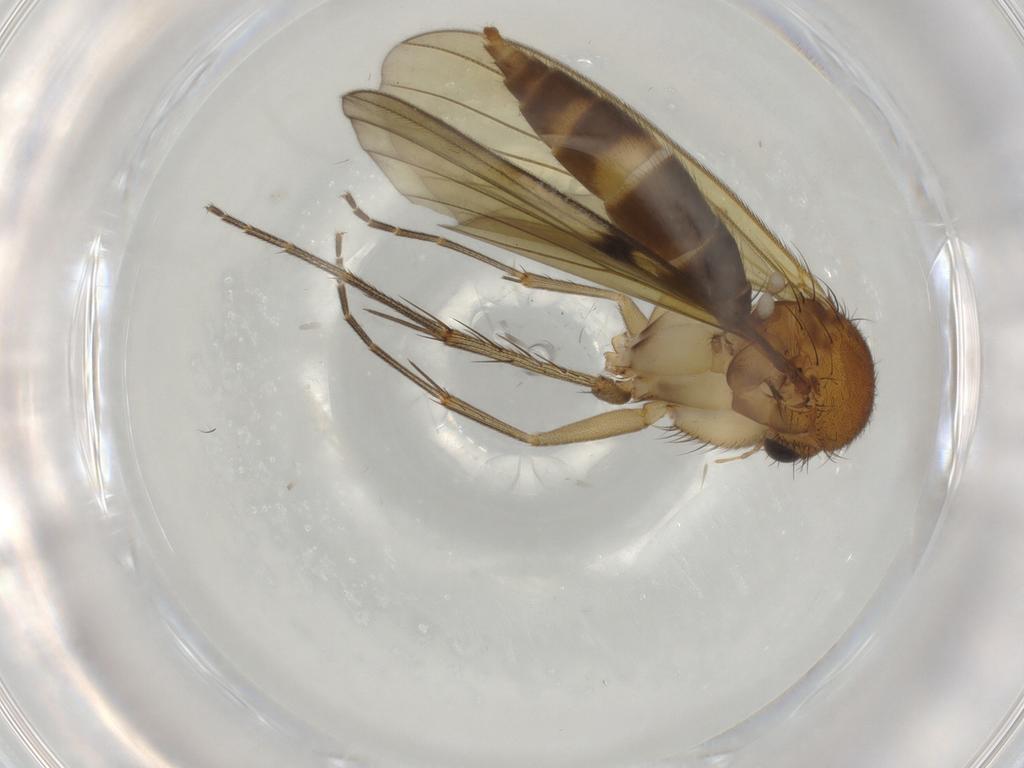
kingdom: Animalia
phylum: Arthropoda
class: Insecta
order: Diptera
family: Mycetophilidae
